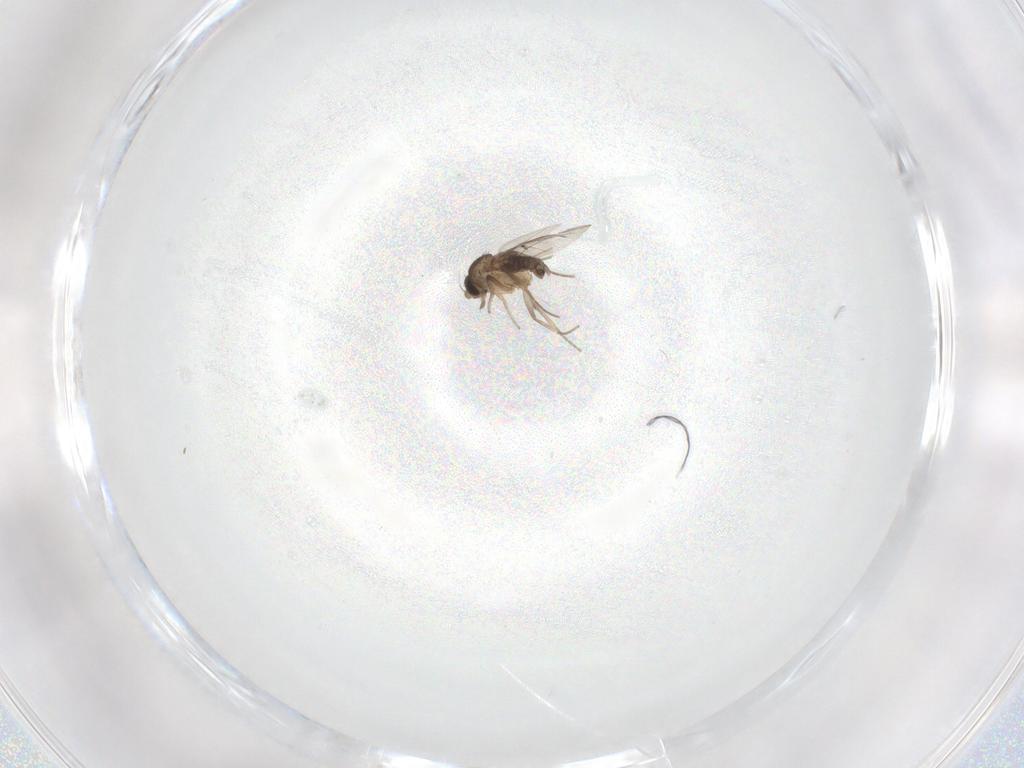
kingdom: Animalia
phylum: Arthropoda
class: Insecta
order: Diptera
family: Phoridae
